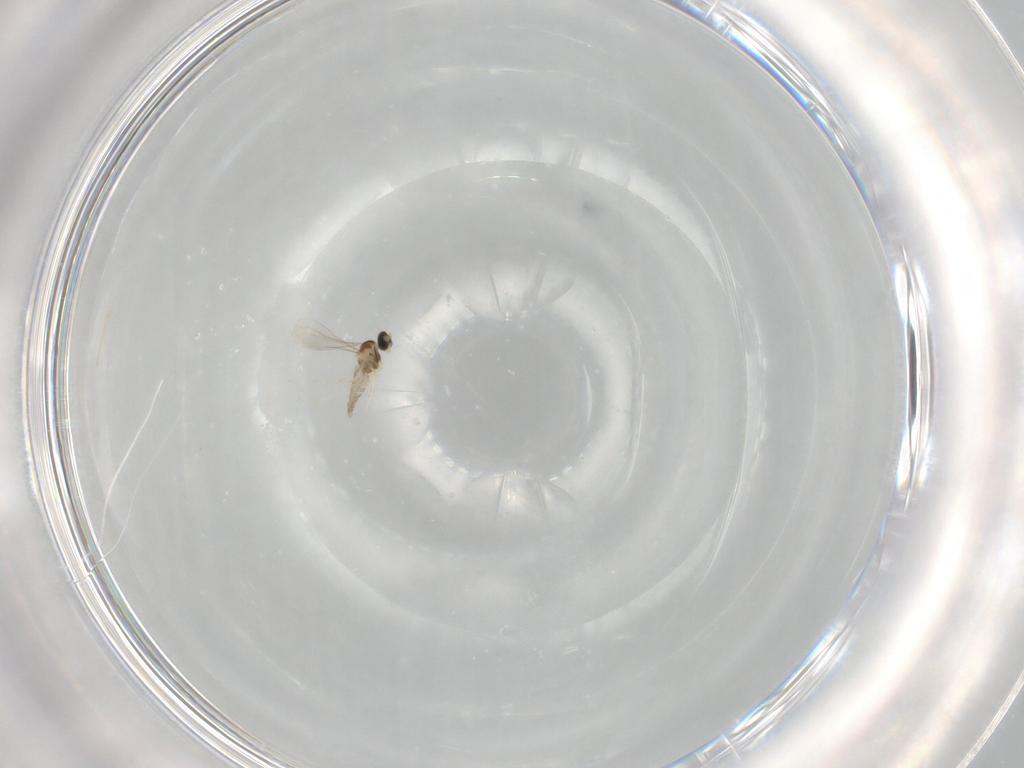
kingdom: Animalia
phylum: Arthropoda
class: Insecta
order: Diptera
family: Cecidomyiidae
